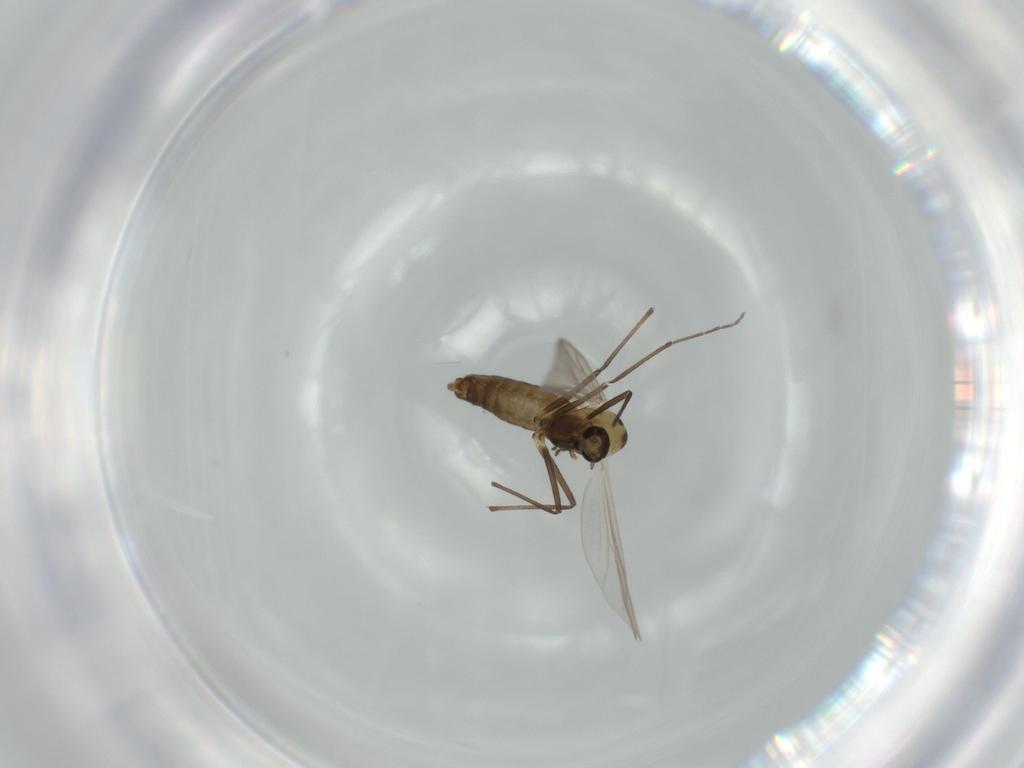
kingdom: Animalia
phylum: Arthropoda
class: Insecta
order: Diptera
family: Chironomidae
